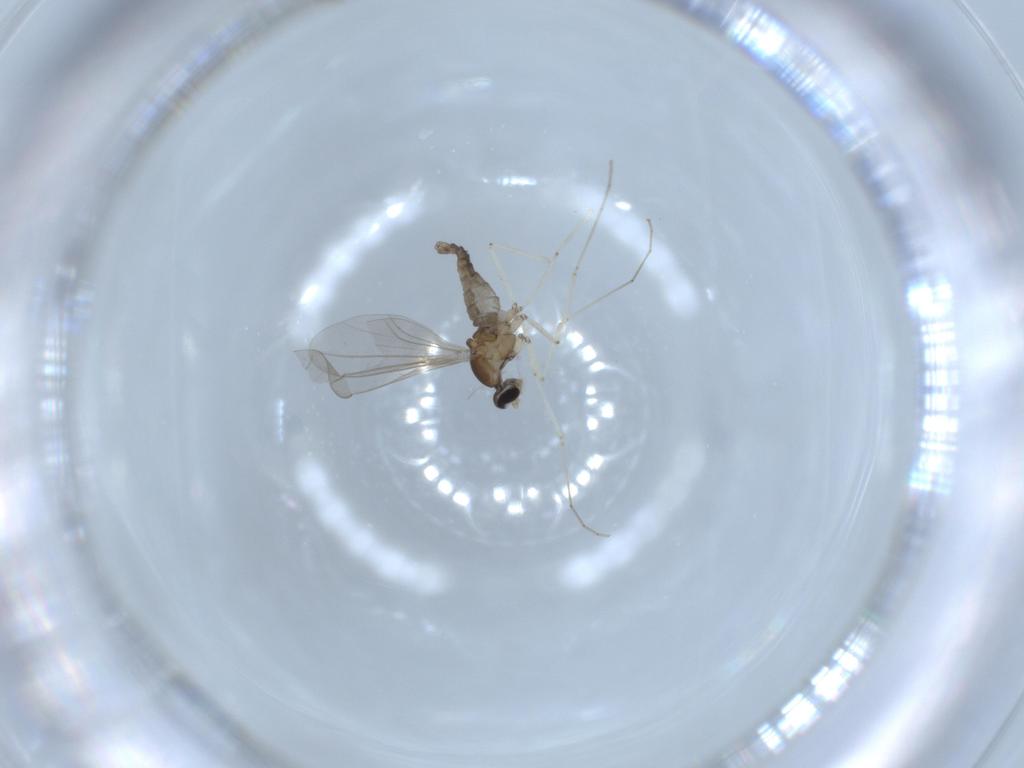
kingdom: Animalia
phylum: Arthropoda
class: Insecta
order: Diptera
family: Cecidomyiidae
